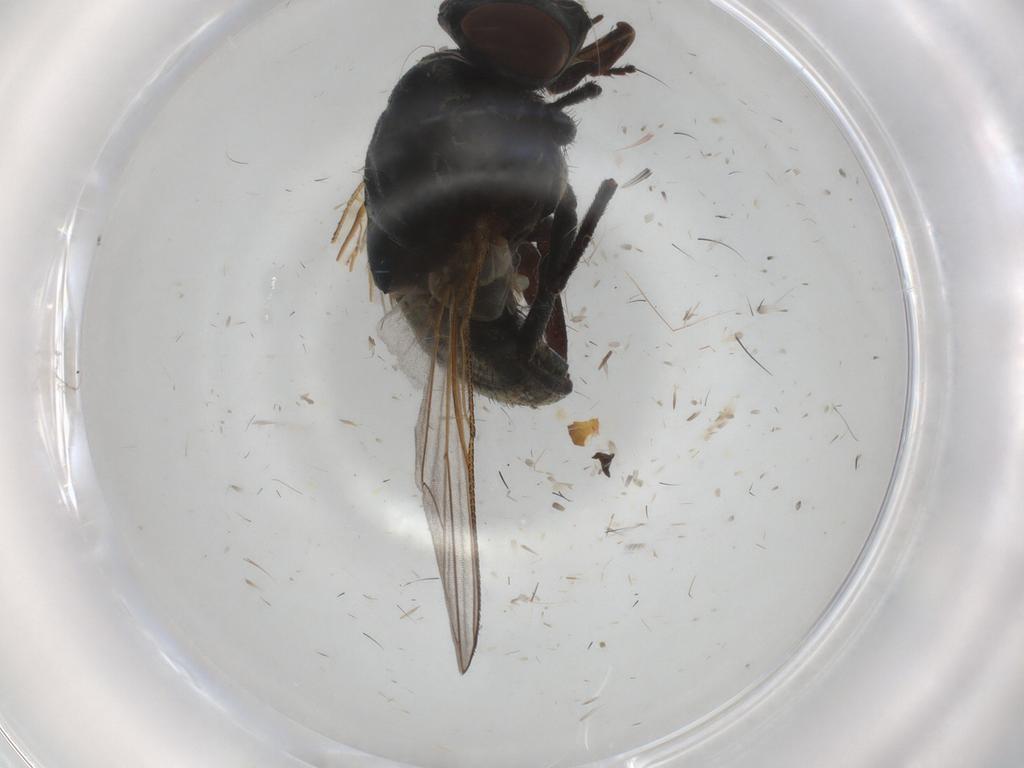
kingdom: Animalia
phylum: Arthropoda
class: Insecta
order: Diptera
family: Muscidae
